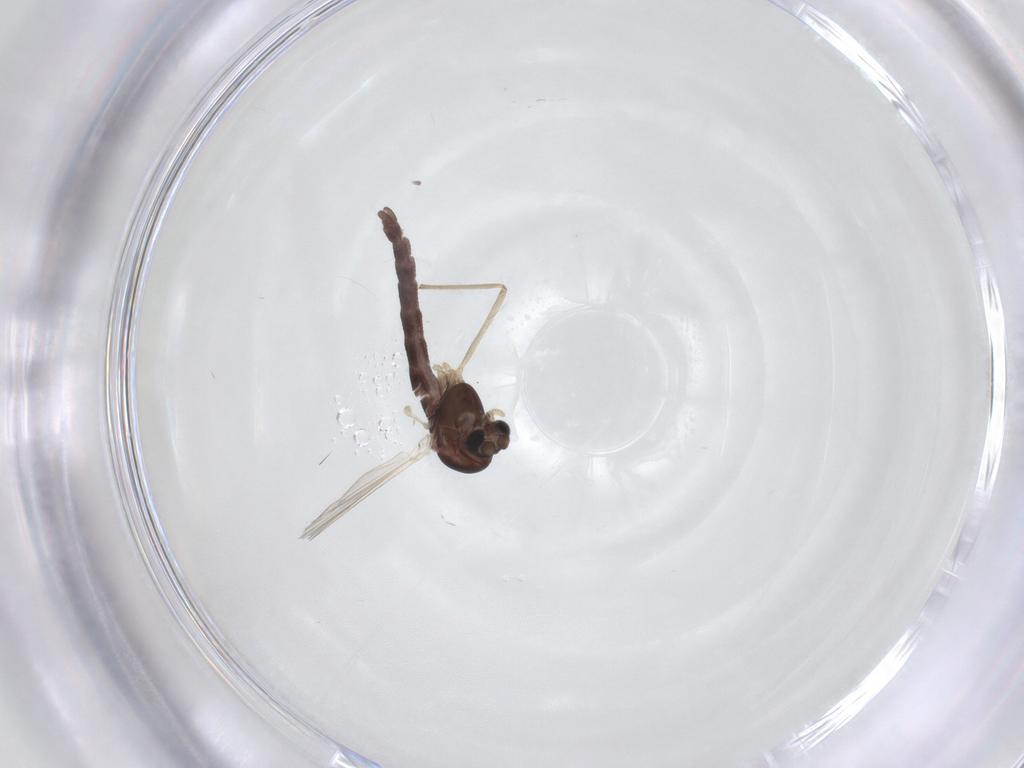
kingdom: Animalia
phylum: Arthropoda
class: Insecta
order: Diptera
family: Chironomidae
